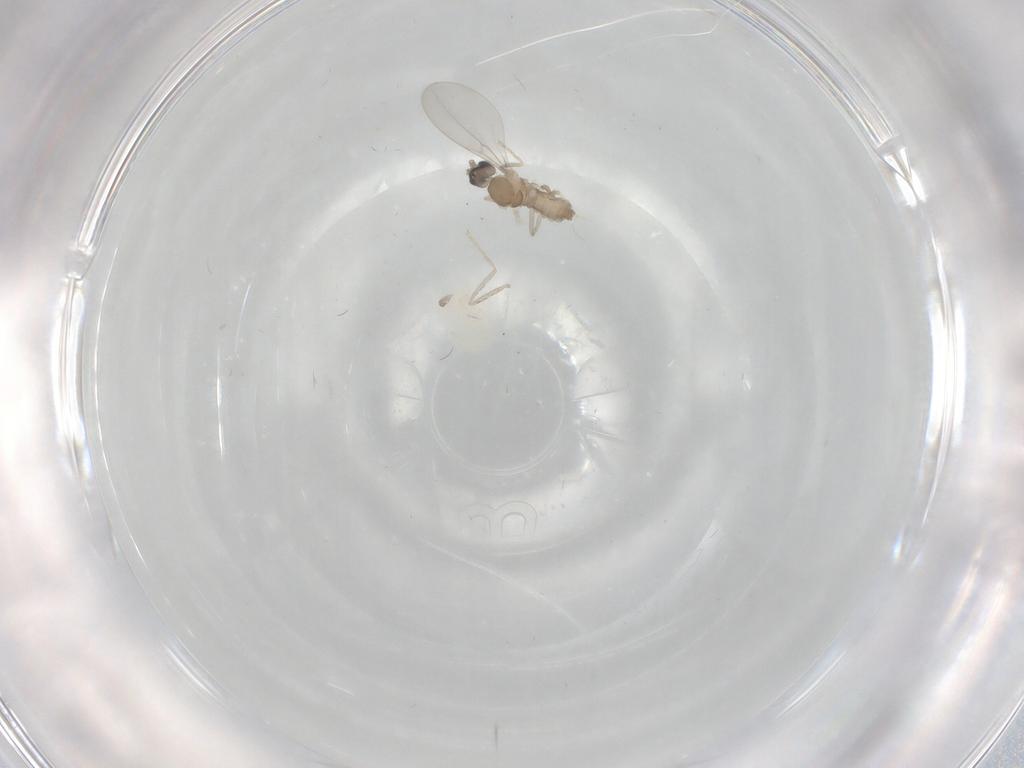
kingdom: Animalia
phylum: Arthropoda
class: Insecta
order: Diptera
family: Cecidomyiidae
